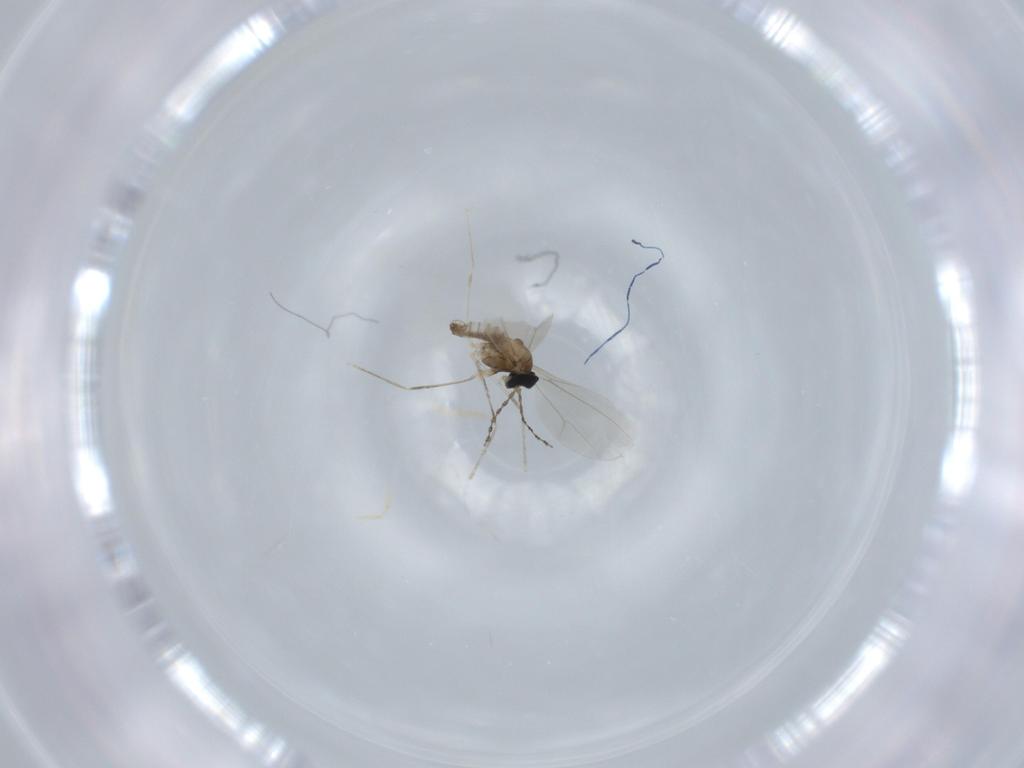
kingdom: Animalia
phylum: Arthropoda
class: Insecta
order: Diptera
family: Cecidomyiidae
